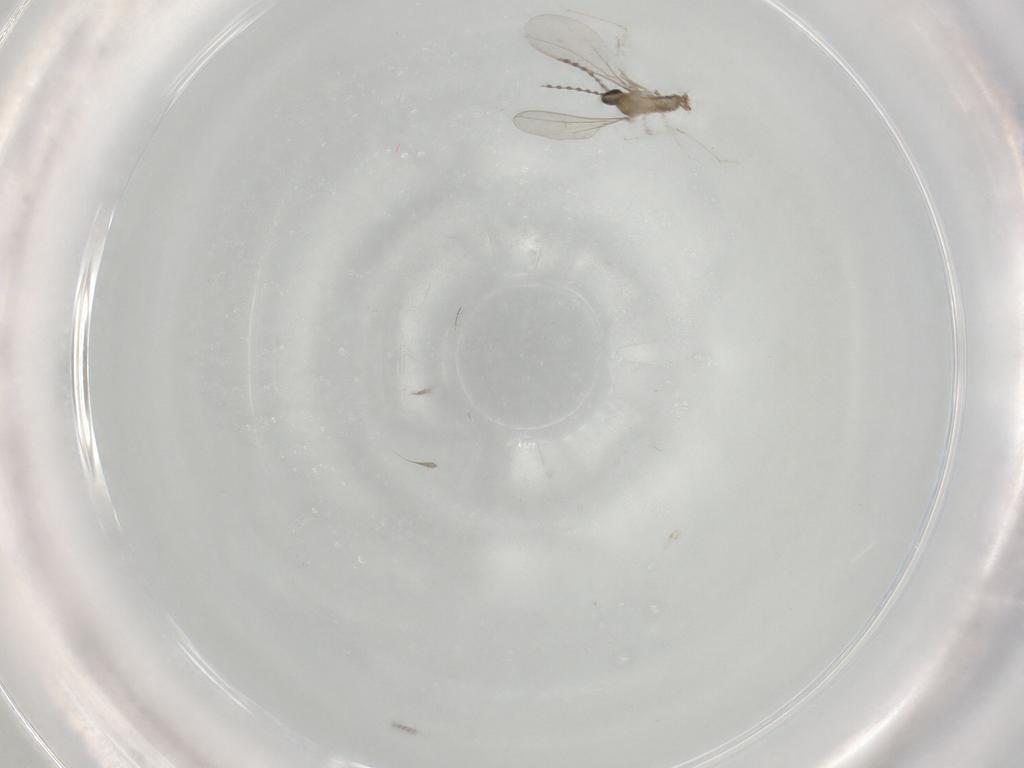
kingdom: Animalia
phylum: Arthropoda
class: Insecta
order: Diptera
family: Cecidomyiidae
